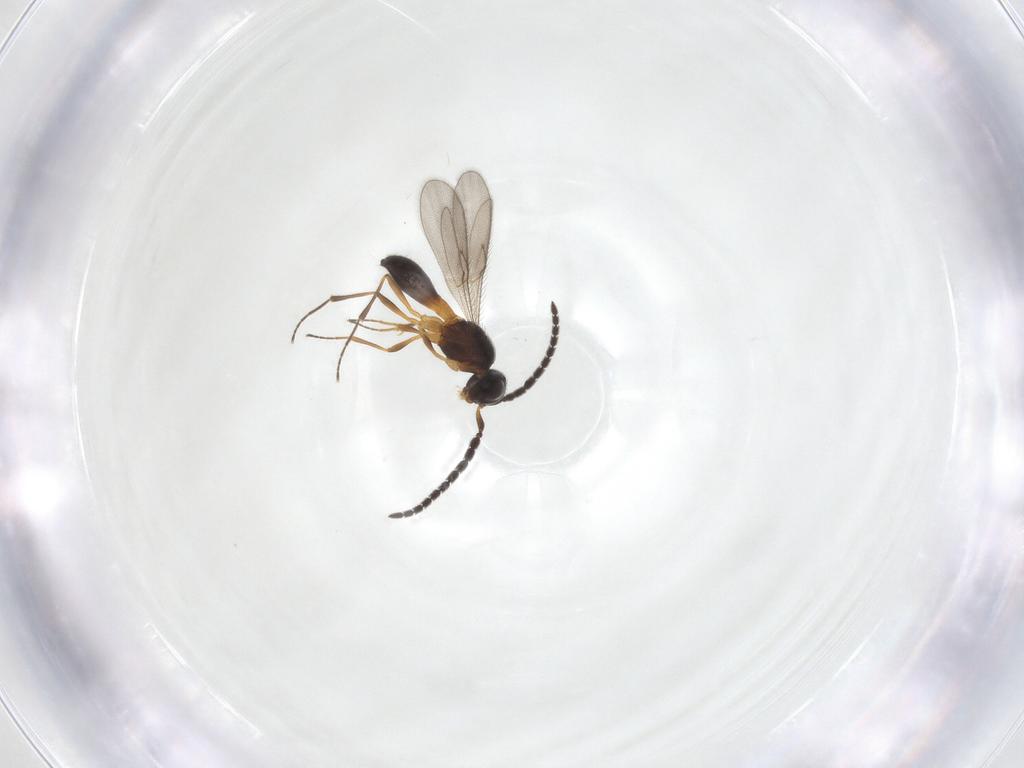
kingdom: Animalia
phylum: Arthropoda
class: Insecta
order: Hymenoptera
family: Scelionidae
